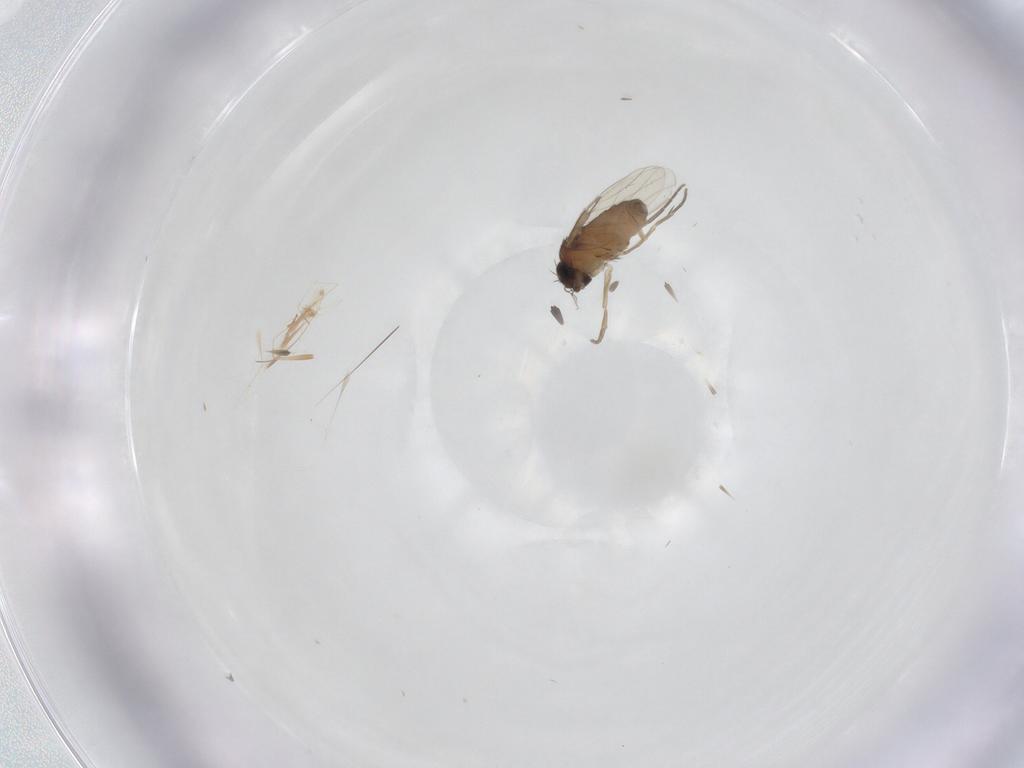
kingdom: Animalia
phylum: Arthropoda
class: Insecta
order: Diptera
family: Phoridae
